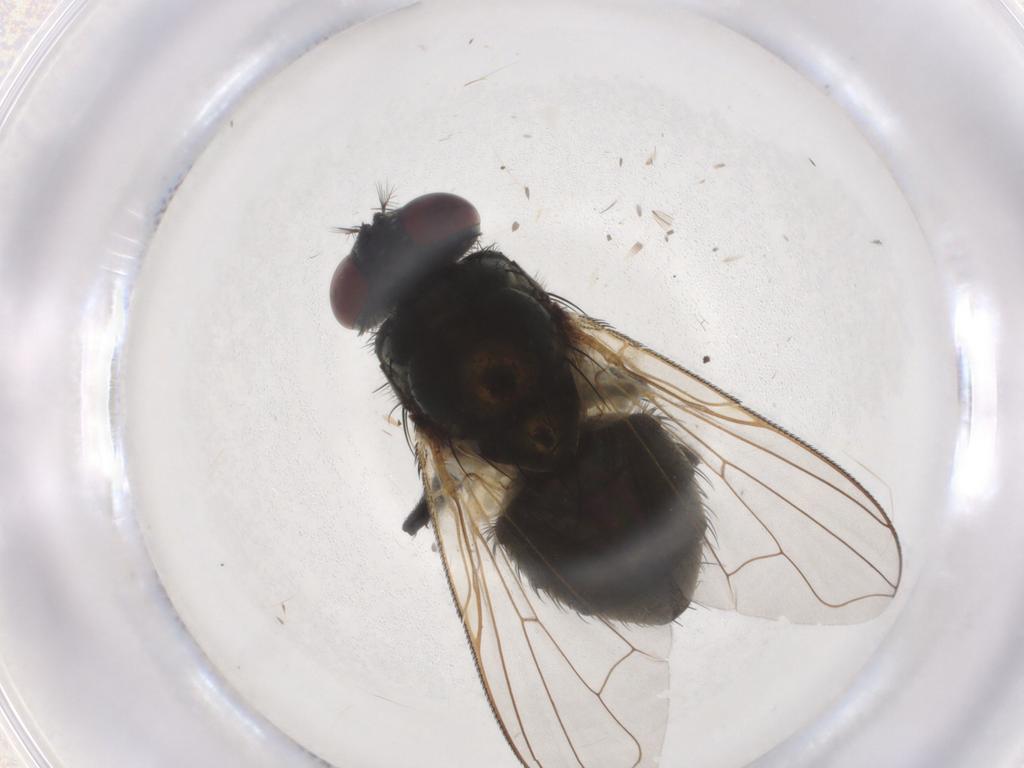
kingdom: Animalia
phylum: Arthropoda
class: Insecta
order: Diptera
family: Muscidae
